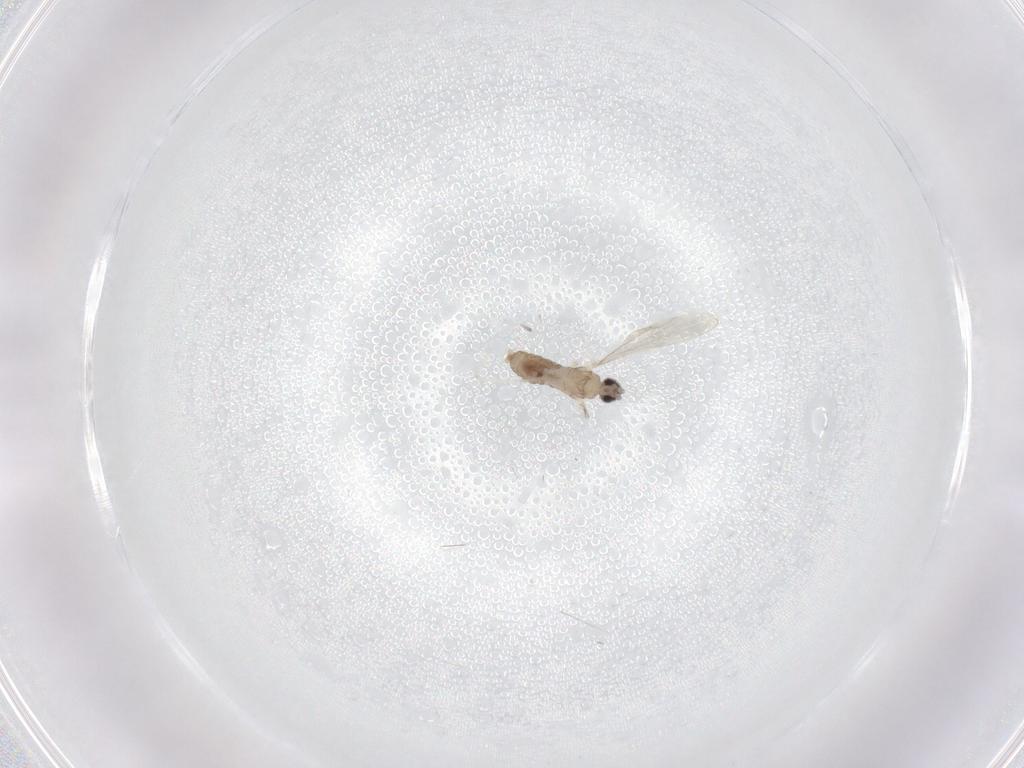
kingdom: Animalia
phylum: Arthropoda
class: Insecta
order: Diptera
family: Cecidomyiidae
